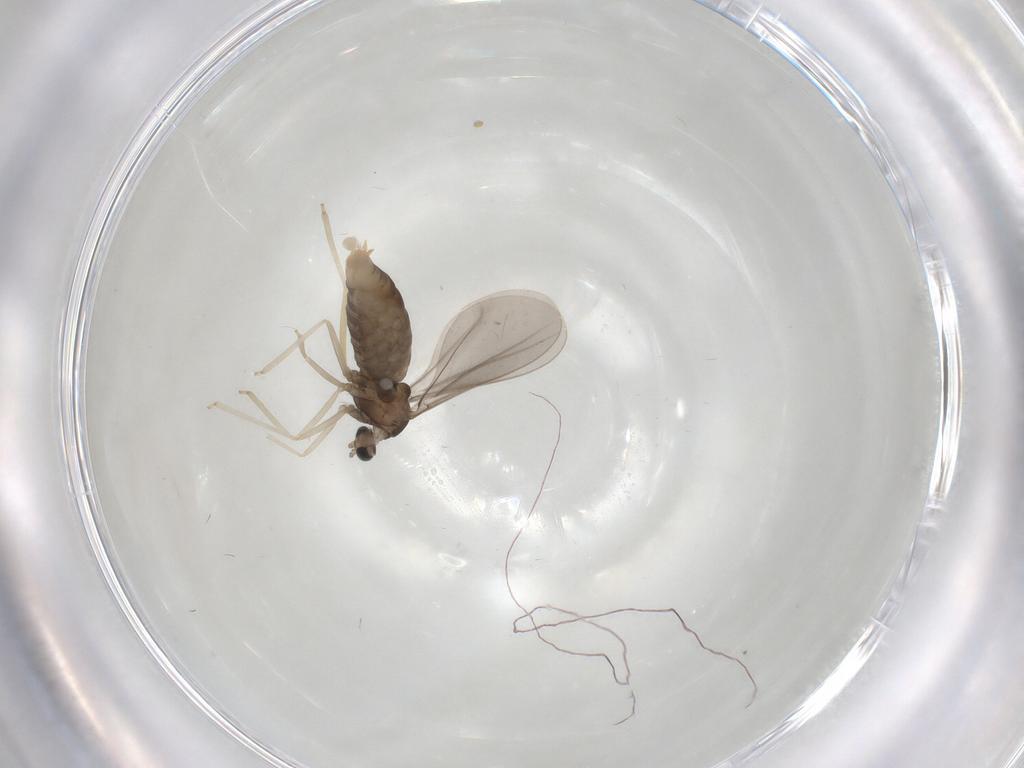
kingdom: Animalia
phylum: Arthropoda
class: Insecta
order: Diptera
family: Cecidomyiidae
